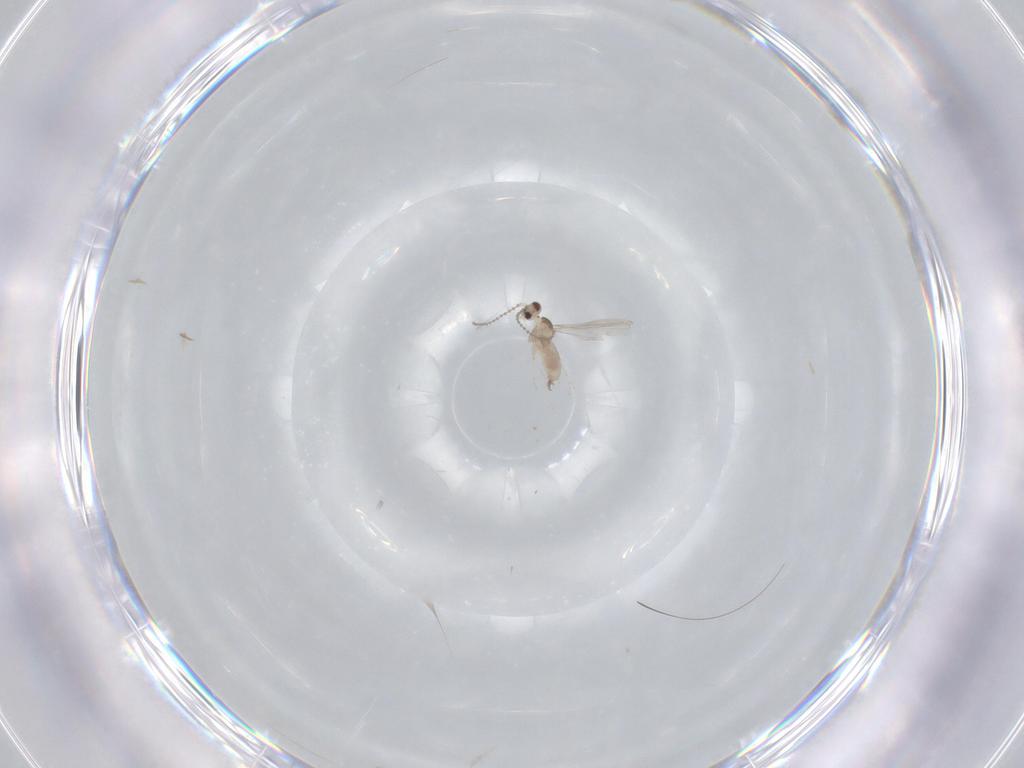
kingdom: Animalia
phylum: Arthropoda
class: Insecta
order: Diptera
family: Cecidomyiidae
